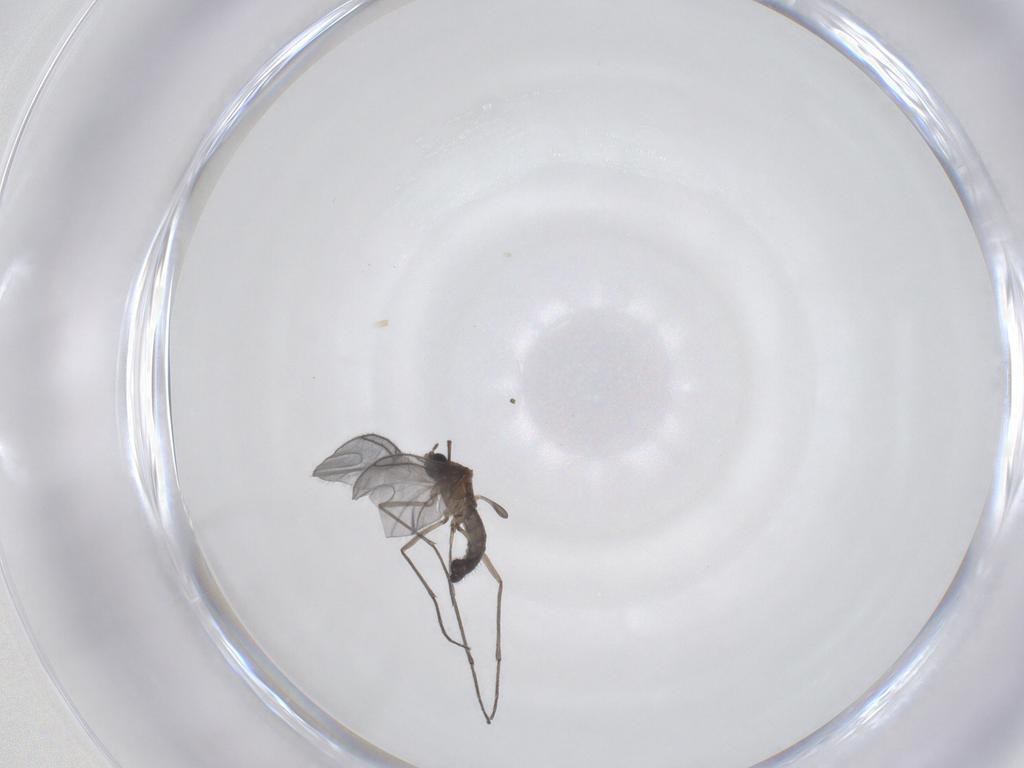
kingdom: Animalia
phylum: Arthropoda
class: Insecta
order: Diptera
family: Sciaridae
